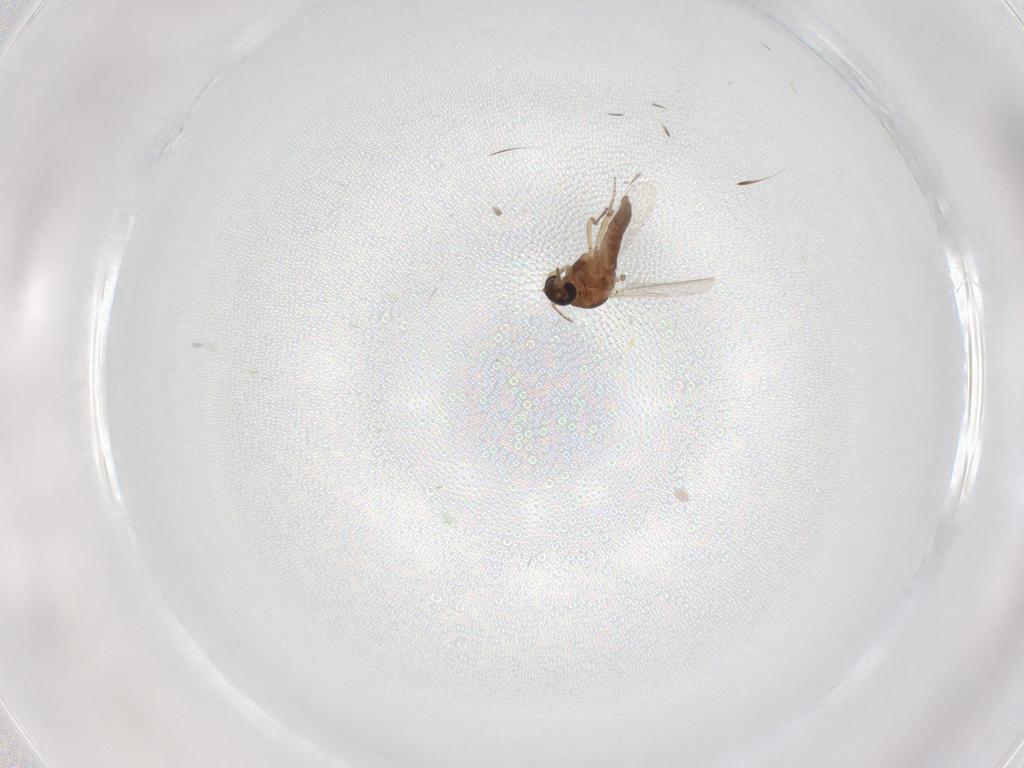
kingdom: Animalia
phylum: Arthropoda
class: Insecta
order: Diptera
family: Ceratopogonidae
